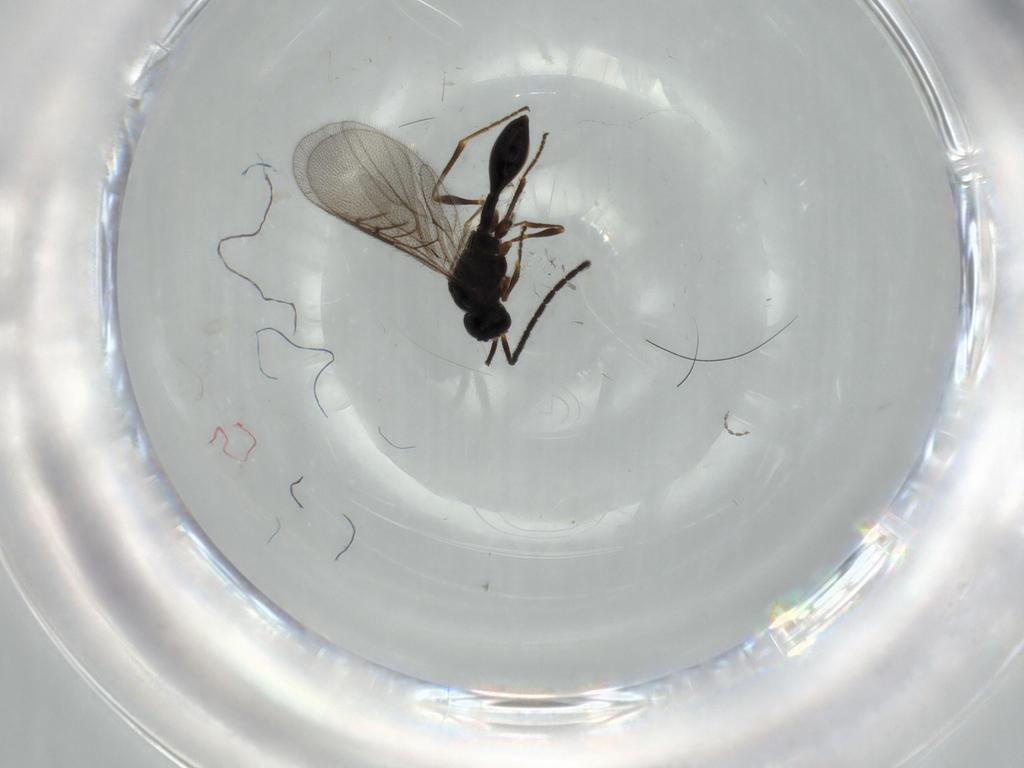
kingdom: Animalia
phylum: Arthropoda
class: Insecta
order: Hymenoptera
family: Diapriidae
